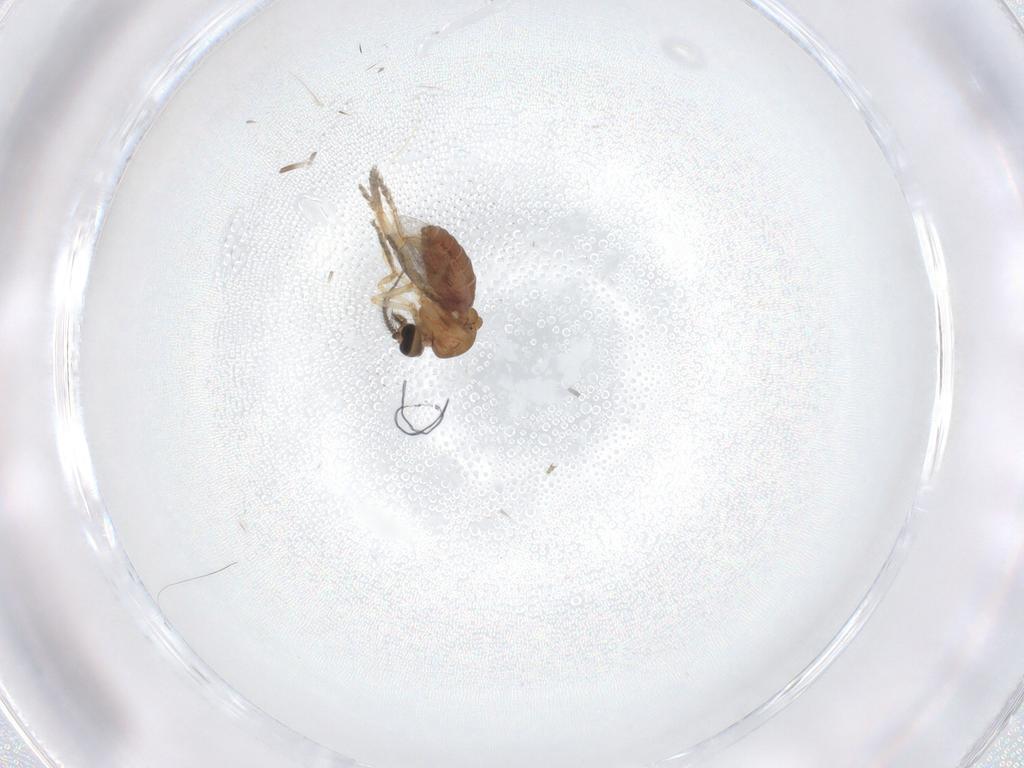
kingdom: Animalia
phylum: Arthropoda
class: Insecta
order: Diptera
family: Ceratopogonidae
